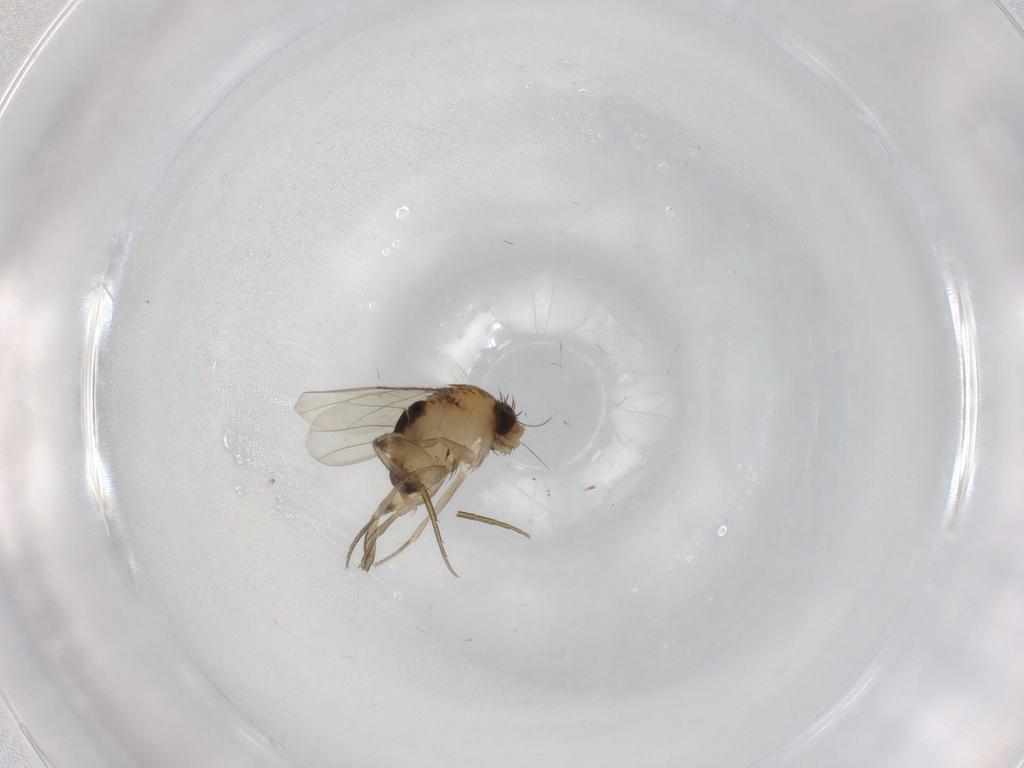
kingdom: Animalia
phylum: Arthropoda
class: Insecta
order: Diptera
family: Phoridae
